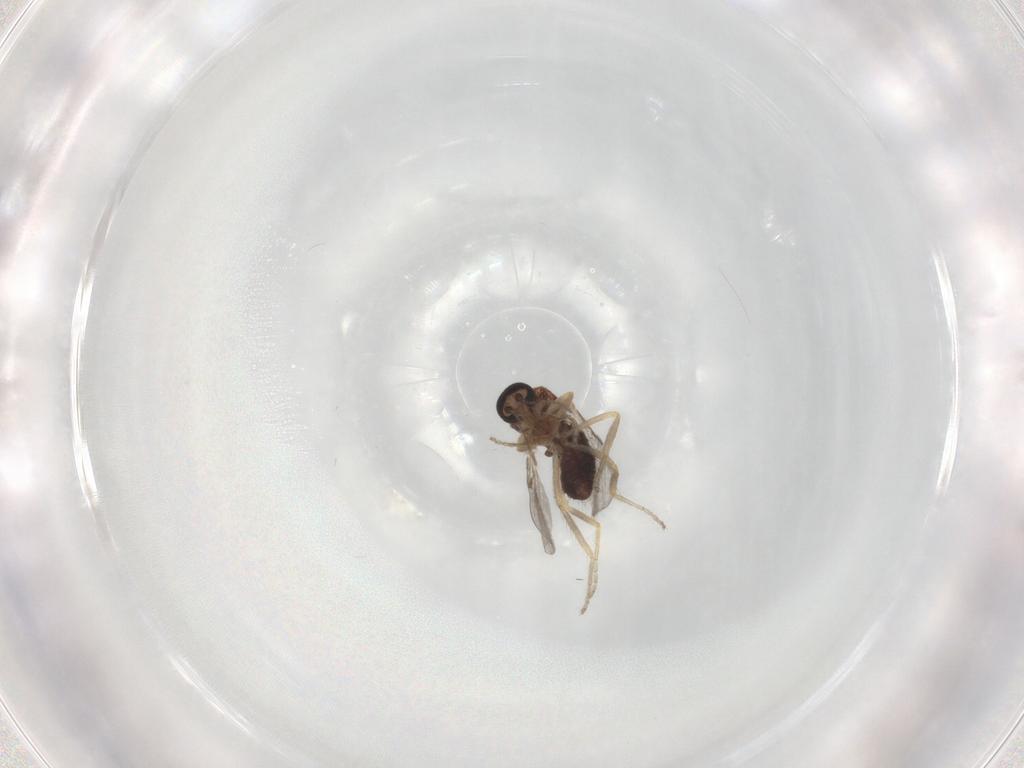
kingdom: Animalia
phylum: Arthropoda
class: Insecta
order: Diptera
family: Ceratopogonidae
